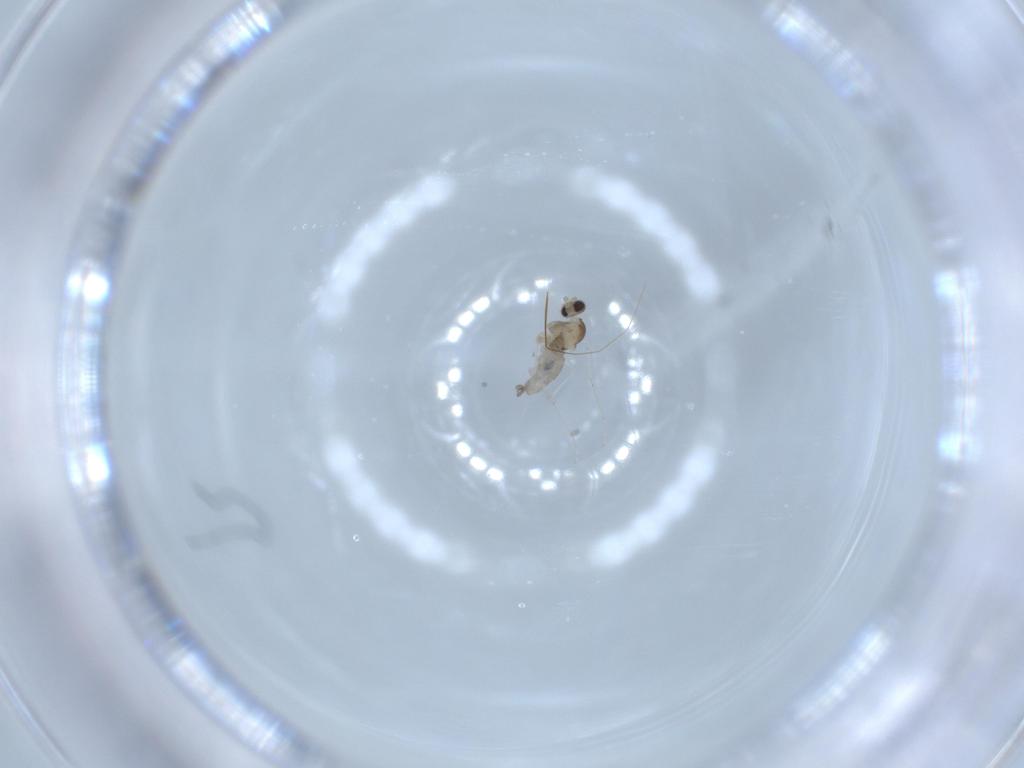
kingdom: Animalia
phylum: Arthropoda
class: Insecta
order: Diptera
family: Cecidomyiidae
